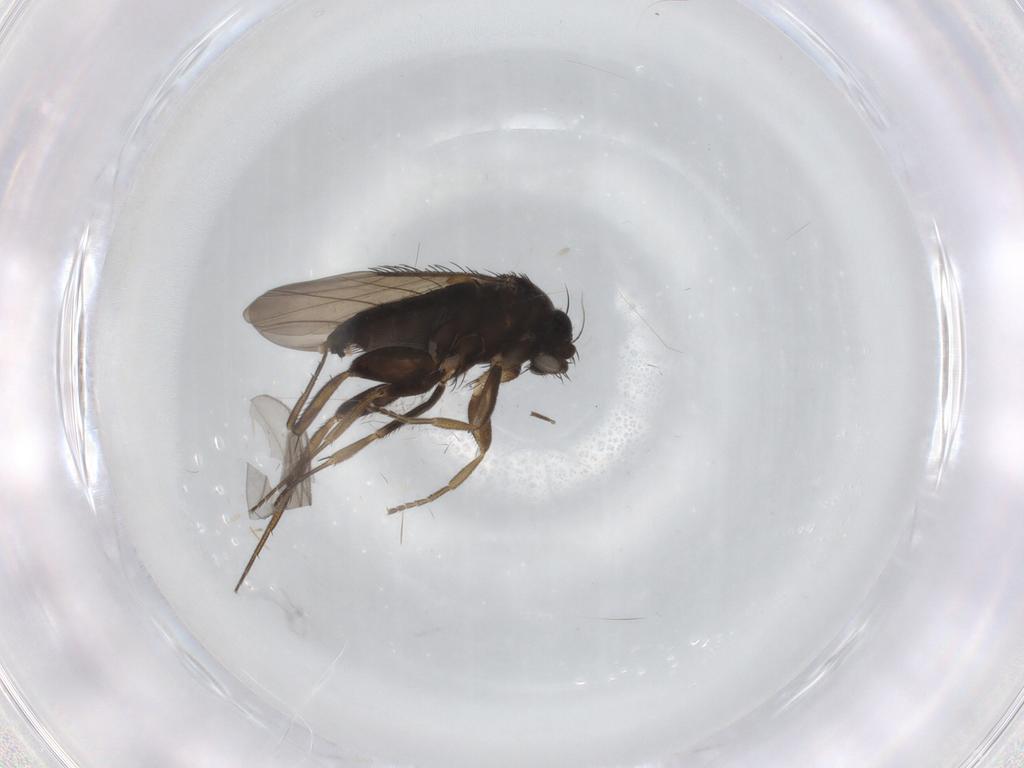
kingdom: Animalia
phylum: Arthropoda
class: Insecta
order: Diptera
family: Phoridae
